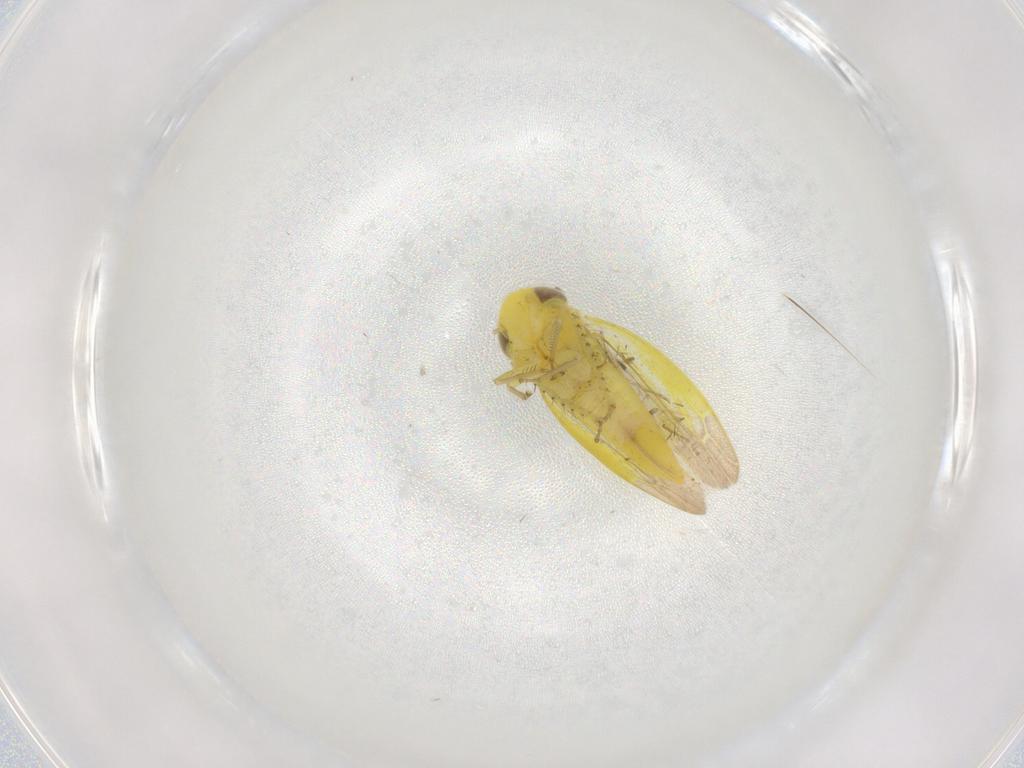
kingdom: Animalia
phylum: Arthropoda
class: Insecta
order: Hemiptera
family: Cicadellidae
